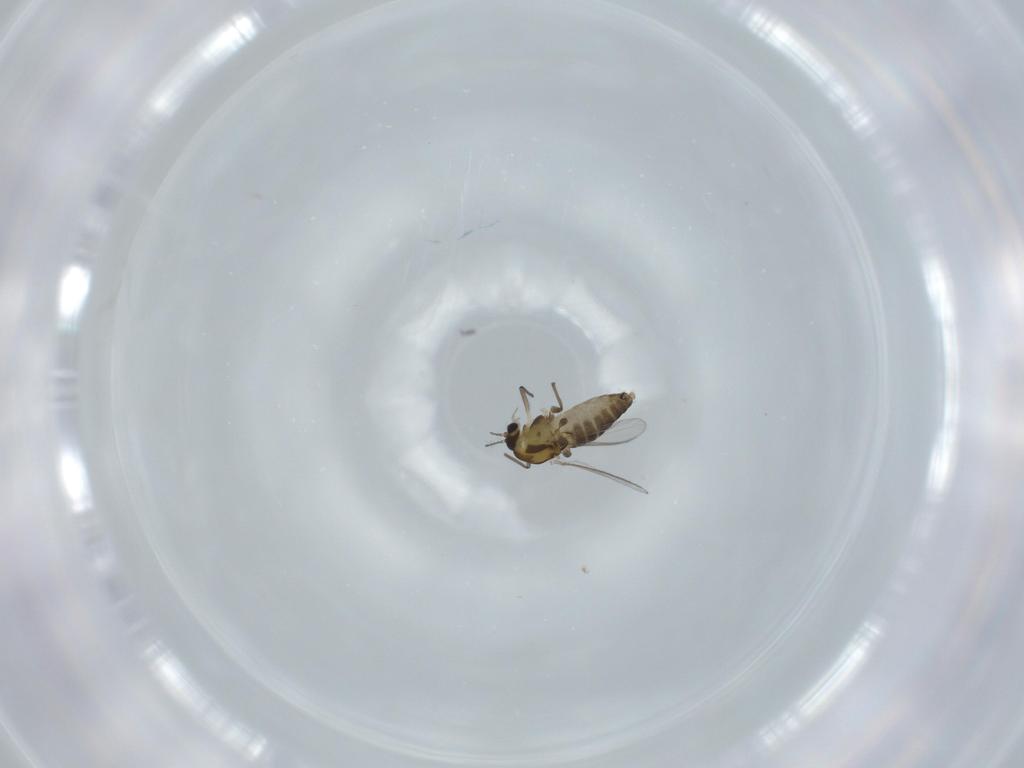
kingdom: Animalia
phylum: Arthropoda
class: Insecta
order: Diptera
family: Chironomidae
